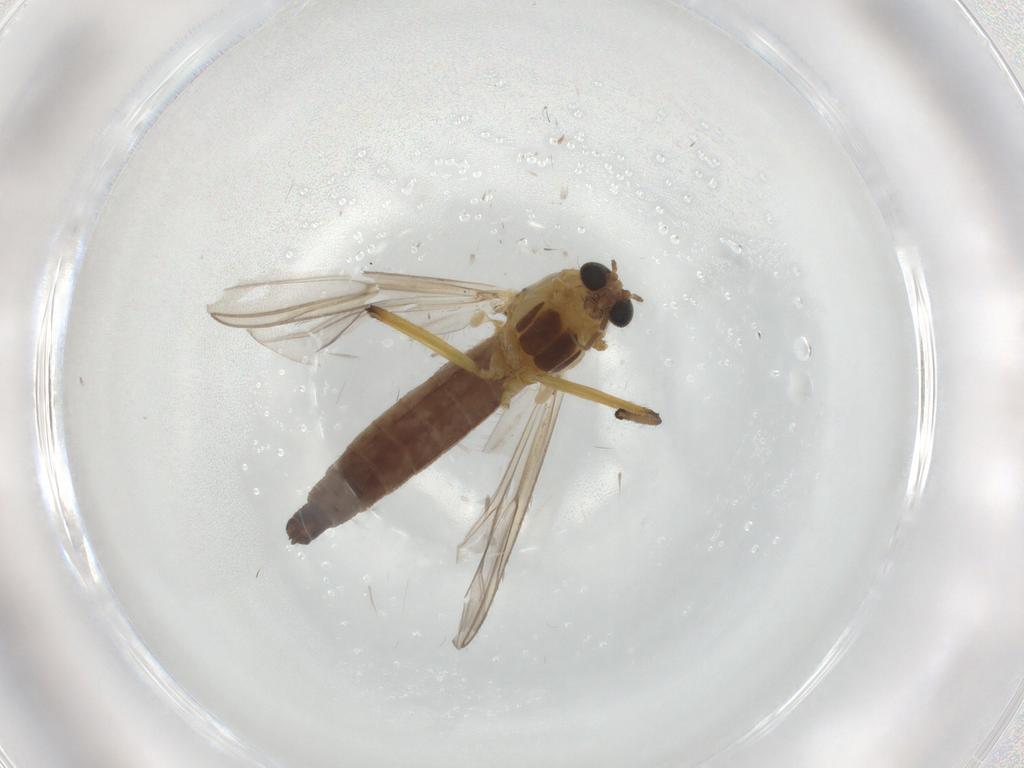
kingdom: Animalia
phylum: Arthropoda
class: Insecta
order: Diptera
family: Chironomidae
